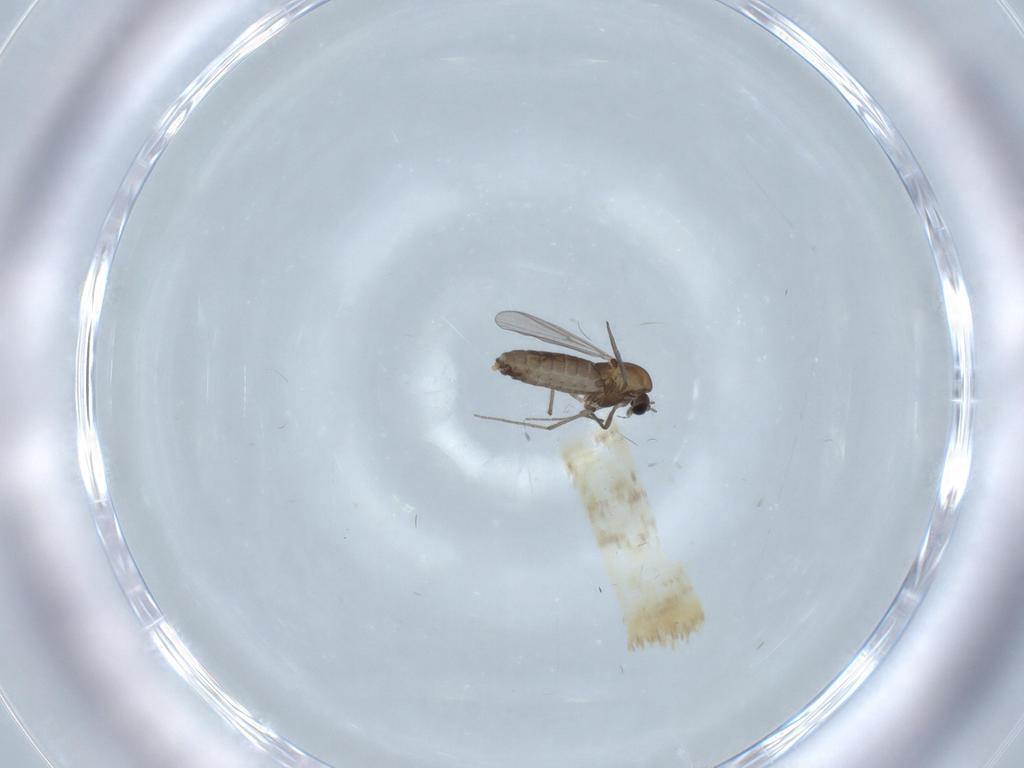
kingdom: Animalia
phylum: Arthropoda
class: Insecta
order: Diptera
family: Chironomidae
